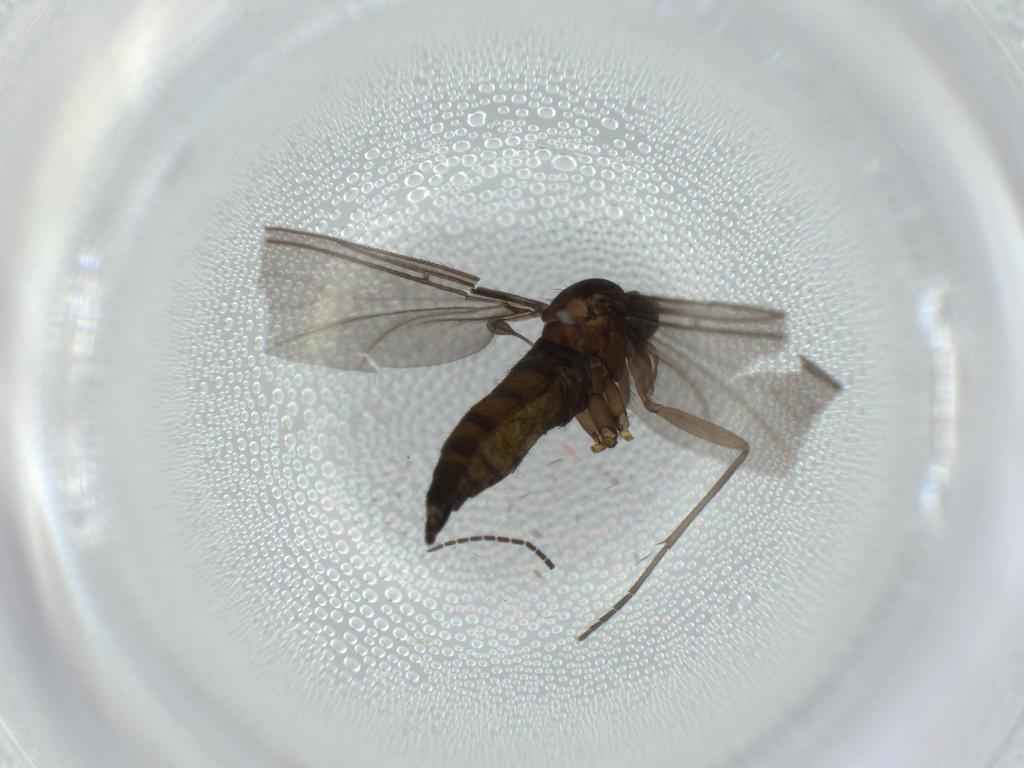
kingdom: Animalia
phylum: Arthropoda
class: Insecta
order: Diptera
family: Sciaridae
